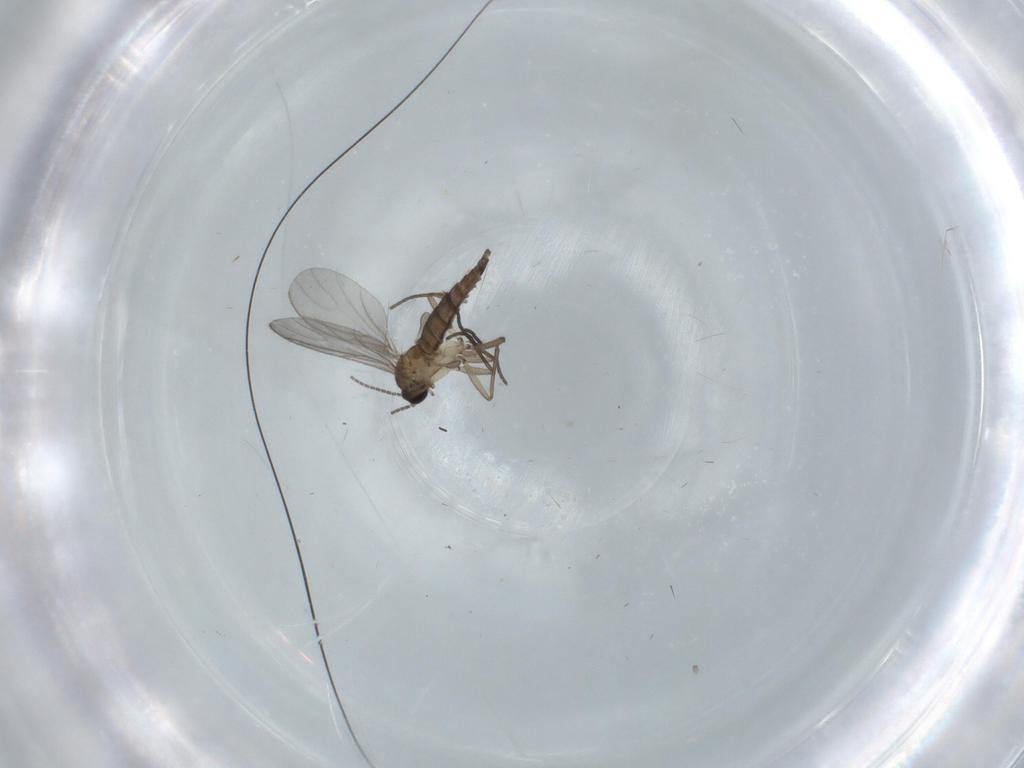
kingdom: Animalia
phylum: Arthropoda
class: Insecta
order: Diptera
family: Sciaridae
